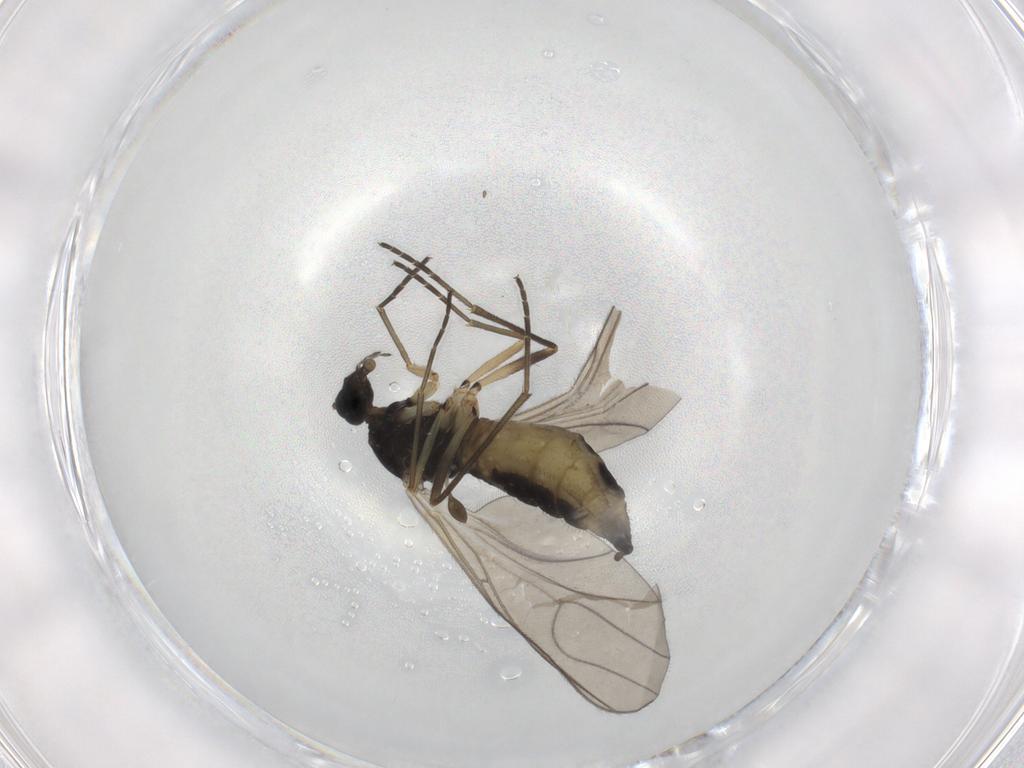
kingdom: Animalia
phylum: Arthropoda
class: Insecta
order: Diptera
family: Sciaridae
